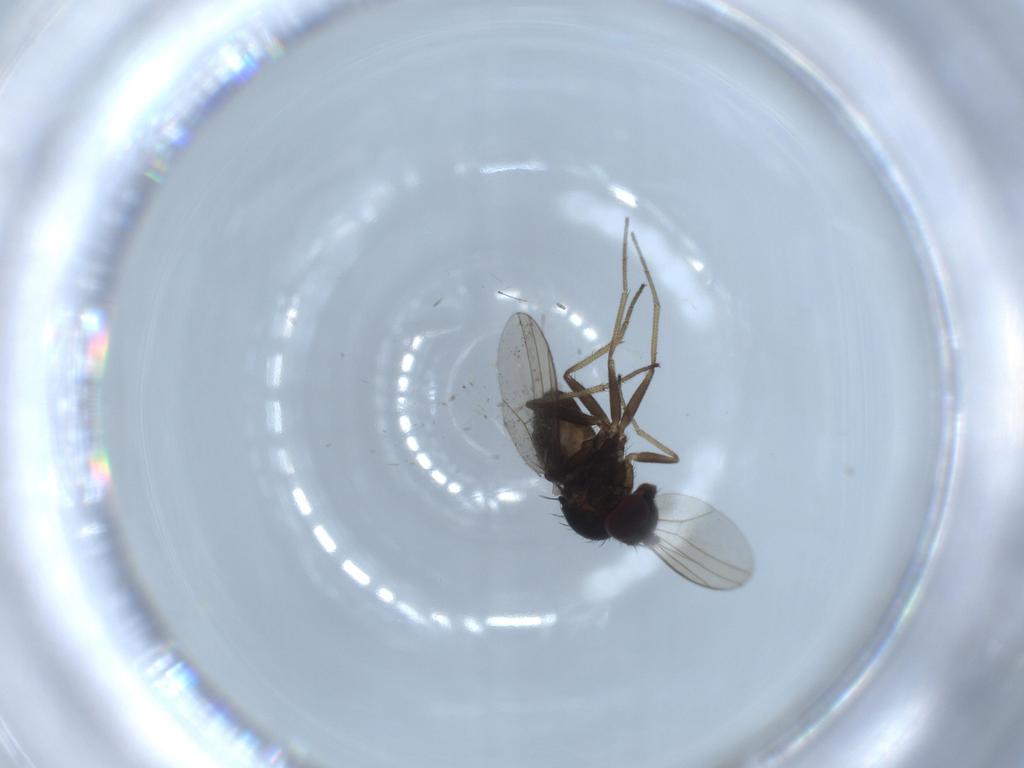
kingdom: Animalia
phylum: Arthropoda
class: Insecta
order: Diptera
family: Dolichopodidae
